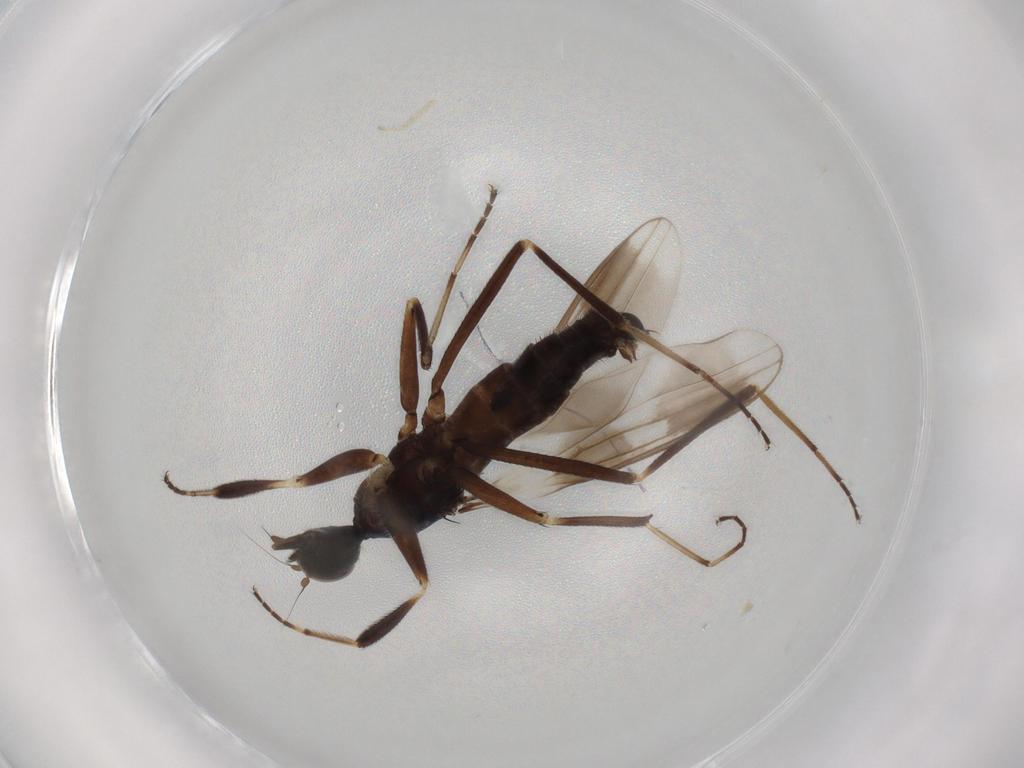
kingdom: Animalia
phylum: Arthropoda
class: Insecta
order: Diptera
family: Hybotidae
